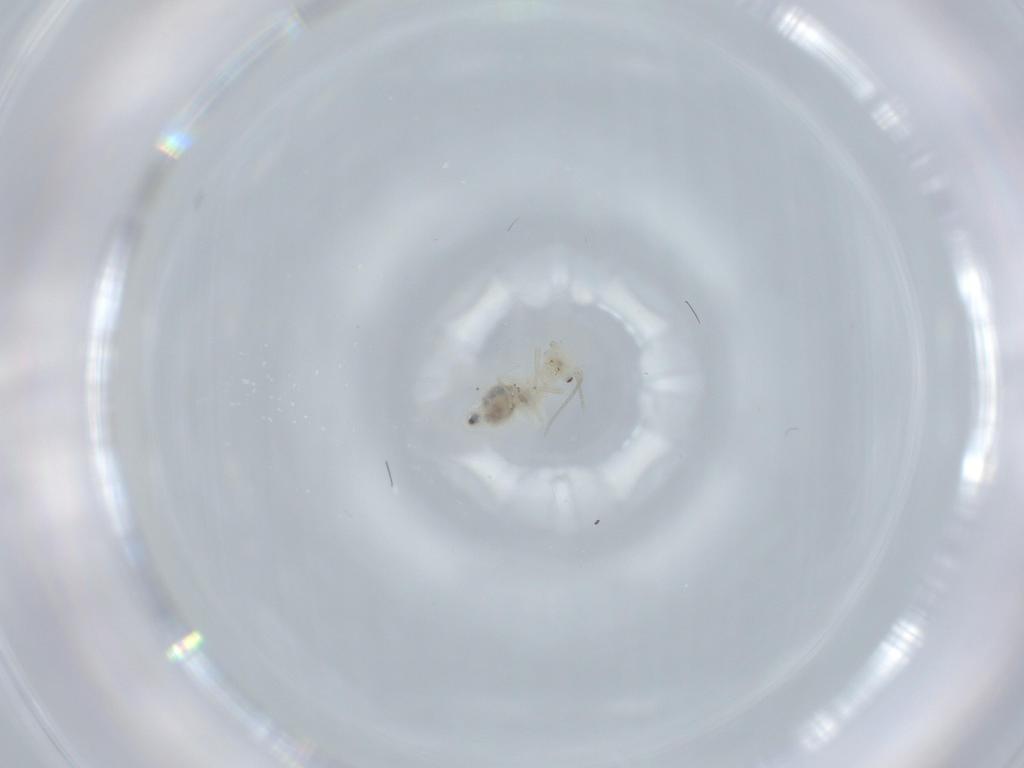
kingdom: Animalia
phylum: Arthropoda
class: Insecta
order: Psocodea
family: Caeciliusidae
